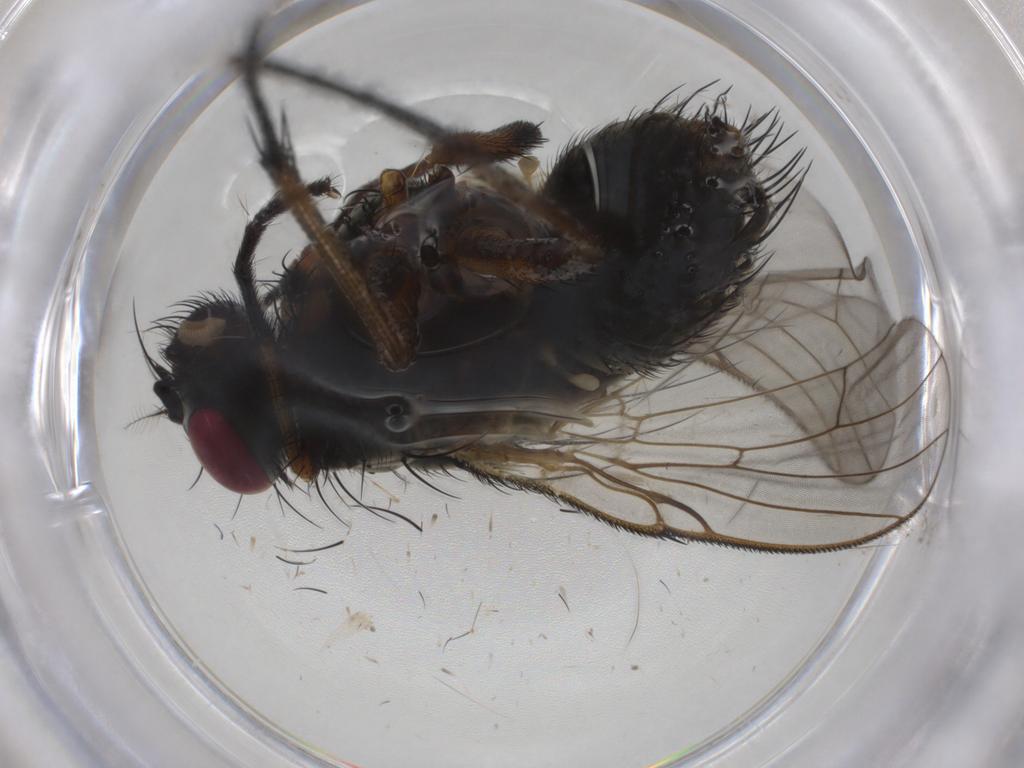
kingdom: Animalia
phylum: Arthropoda
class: Insecta
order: Diptera
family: Muscidae
